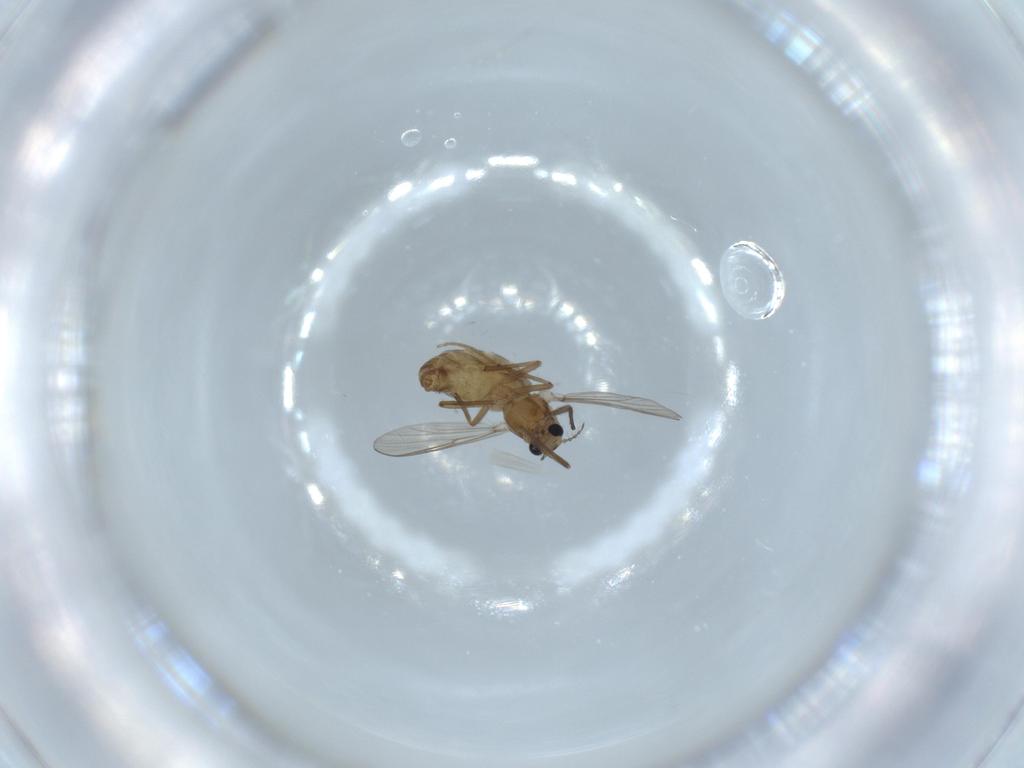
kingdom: Animalia
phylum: Arthropoda
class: Insecta
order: Diptera
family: Chironomidae
